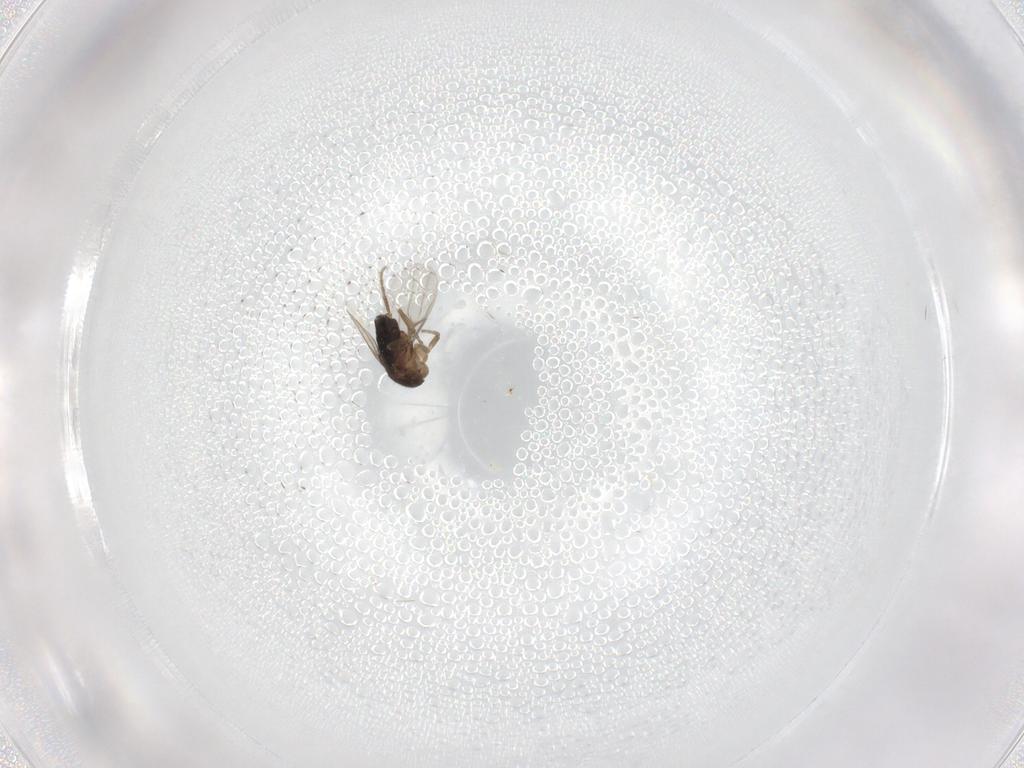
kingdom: Animalia
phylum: Arthropoda
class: Insecta
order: Diptera
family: Phoridae
